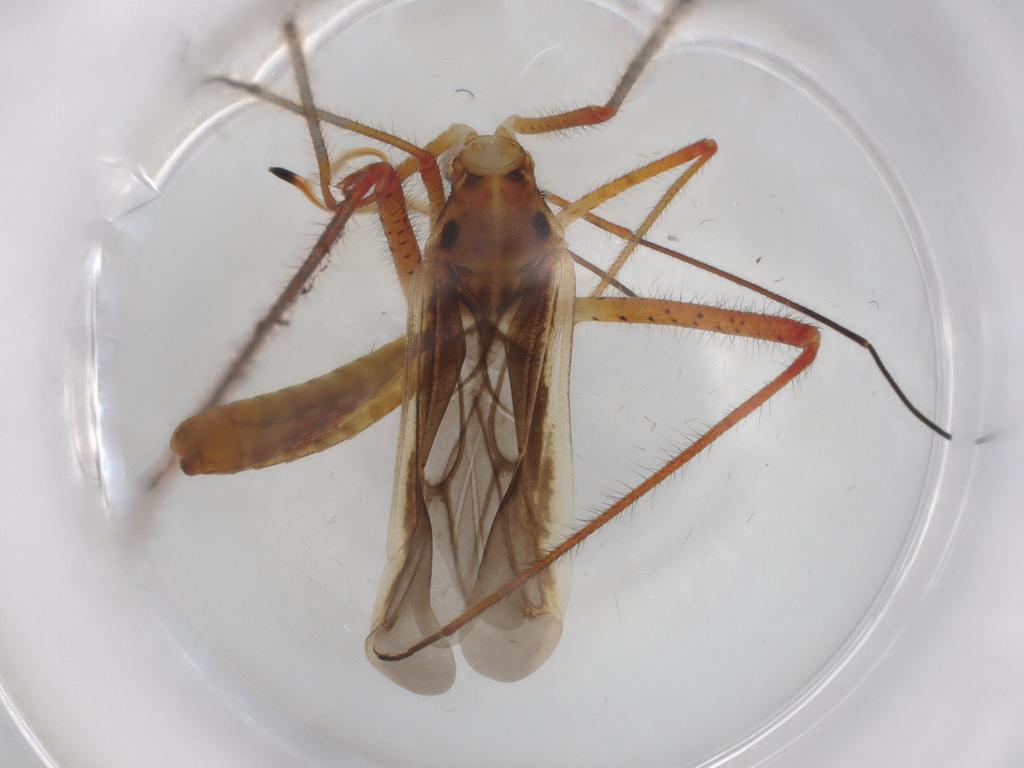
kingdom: Animalia
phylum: Arthropoda
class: Insecta
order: Hemiptera
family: Miridae
